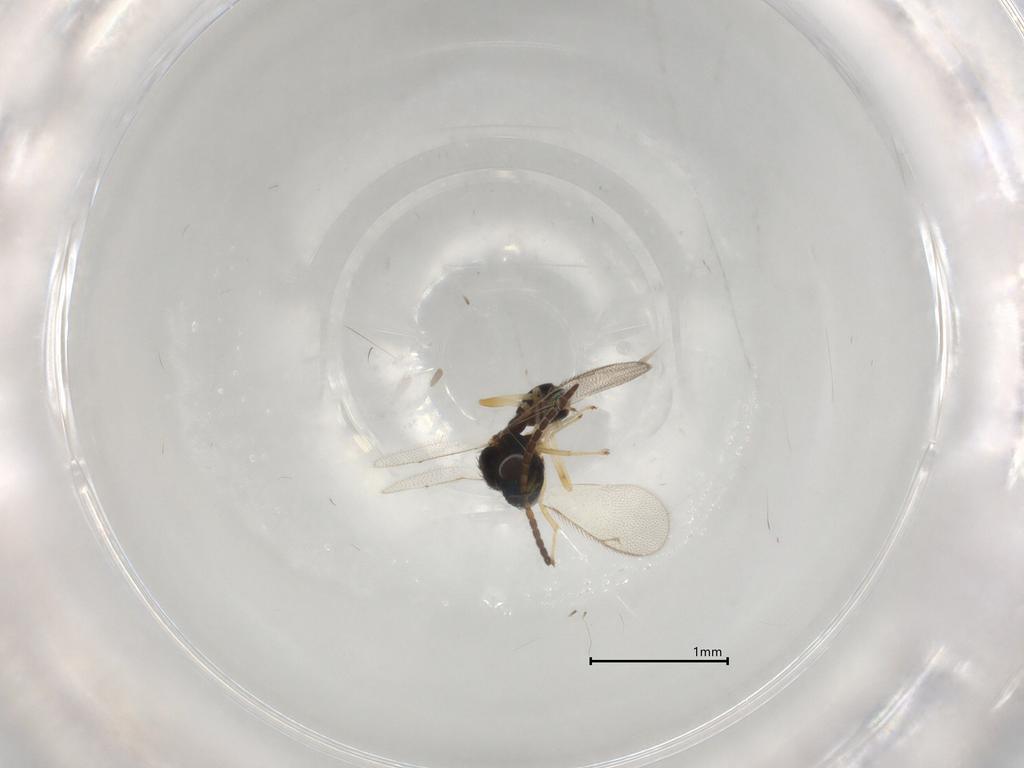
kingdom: Animalia
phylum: Arthropoda
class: Insecta
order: Hymenoptera
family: Diparidae
